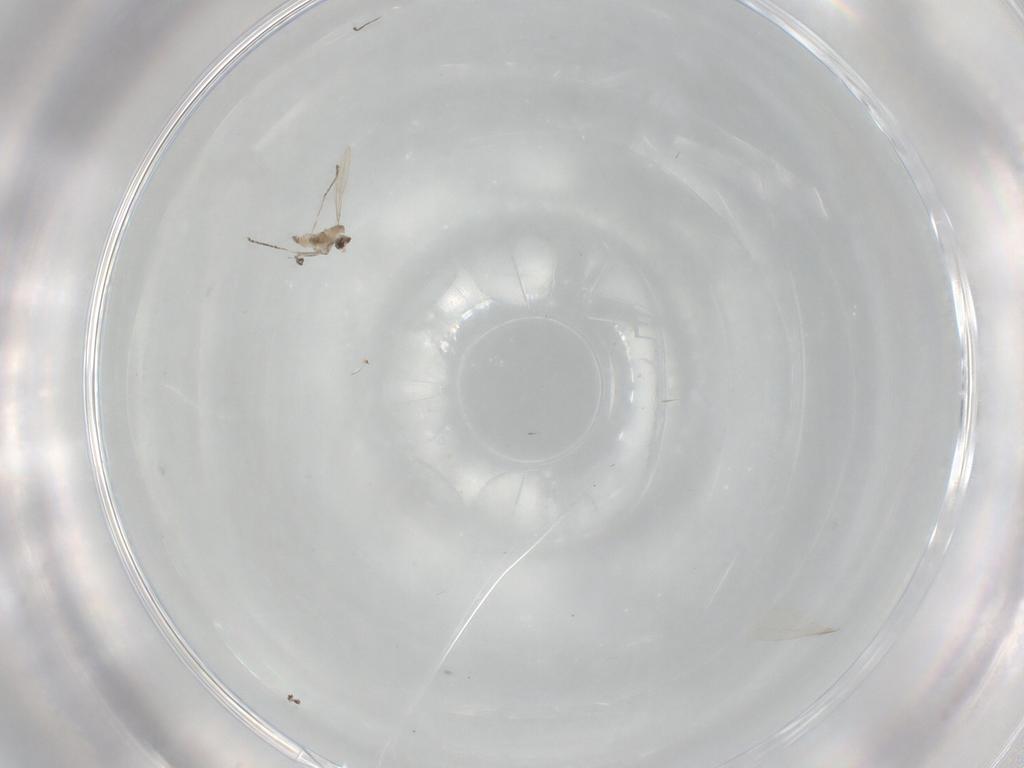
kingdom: Animalia
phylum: Arthropoda
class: Insecta
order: Diptera
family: Cecidomyiidae
